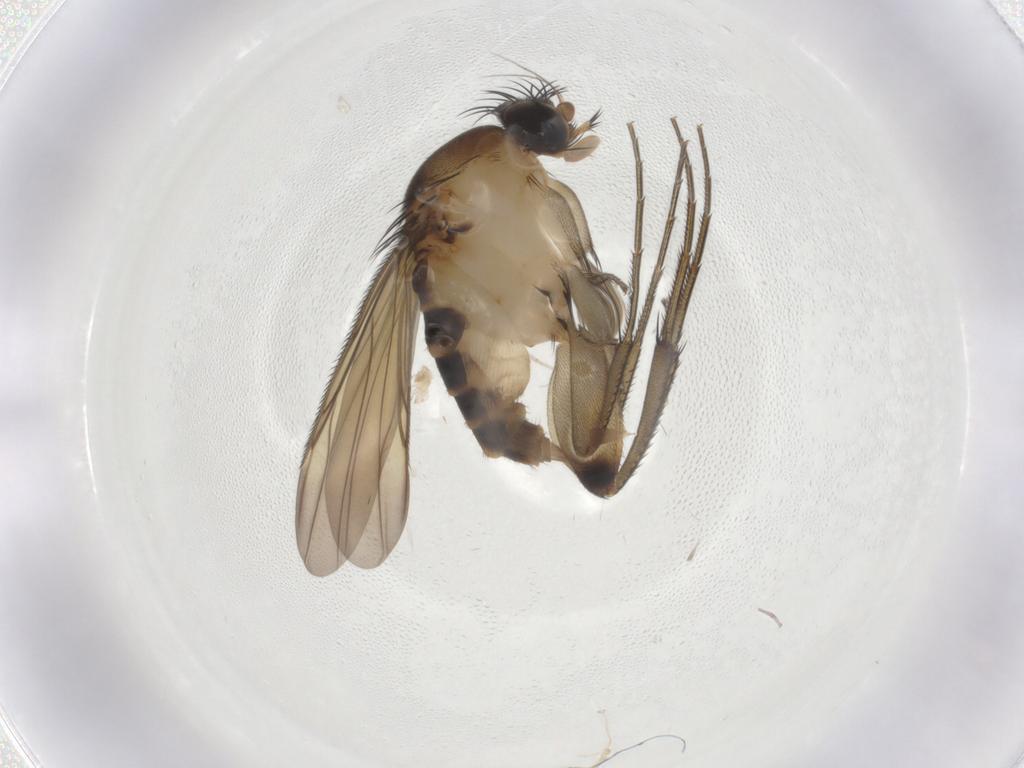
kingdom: Animalia
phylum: Arthropoda
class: Insecta
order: Diptera
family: Phoridae
